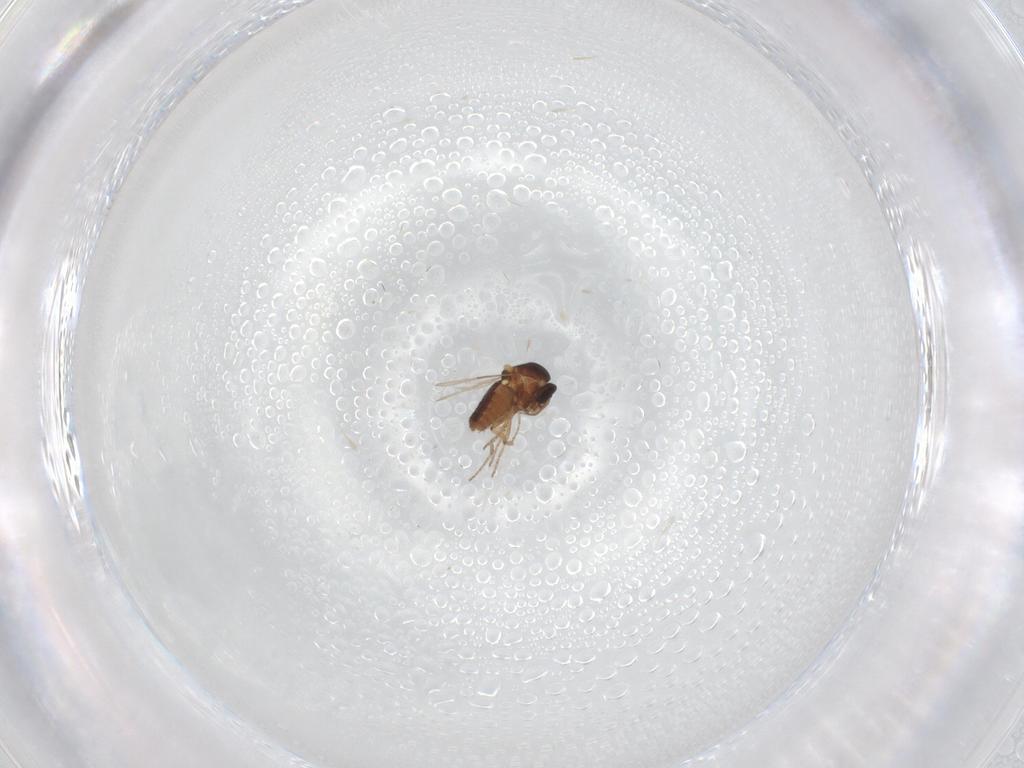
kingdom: Animalia
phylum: Arthropoda
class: Insecta
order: Diptera
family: Ceratopogonidae
